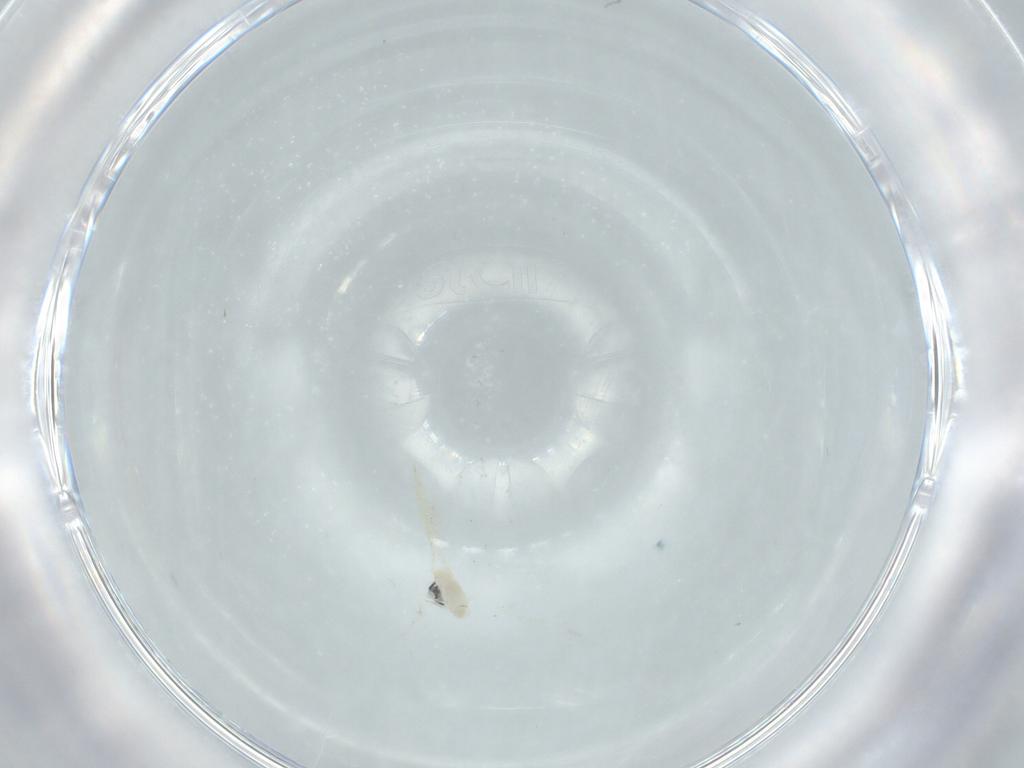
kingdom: Animalia
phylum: Arthropoda
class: Insecta
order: Diptera
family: Cecidomyiidae
